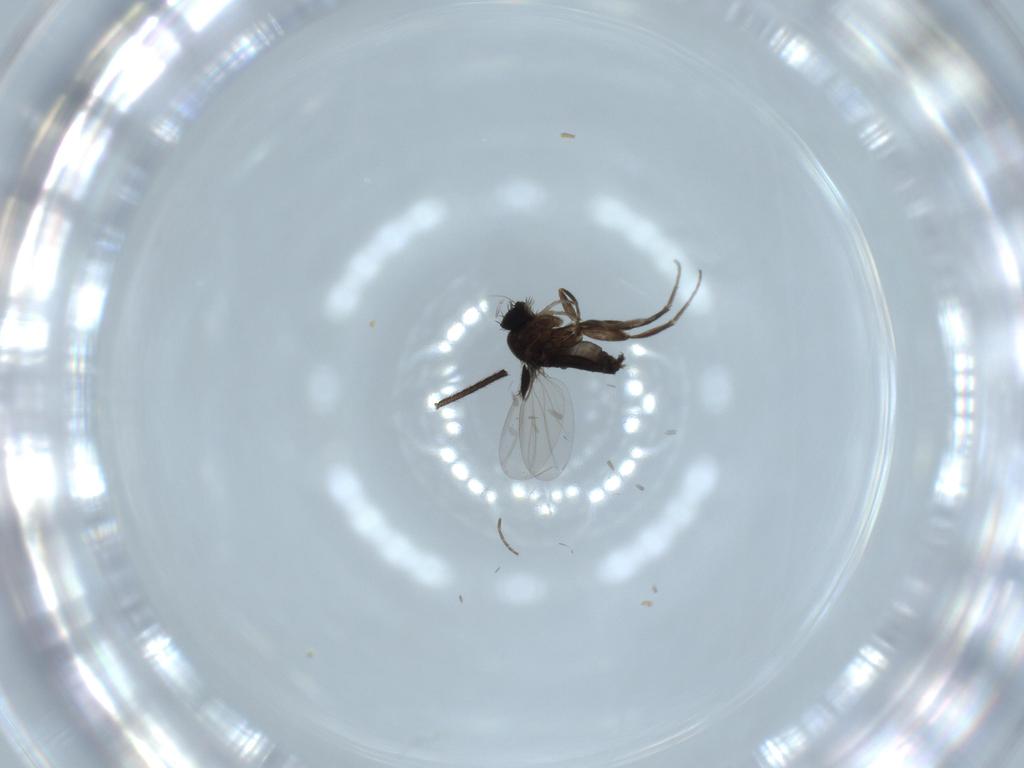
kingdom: Animalia
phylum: Arthropoda
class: Insecta
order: Diptera
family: Phoridae
